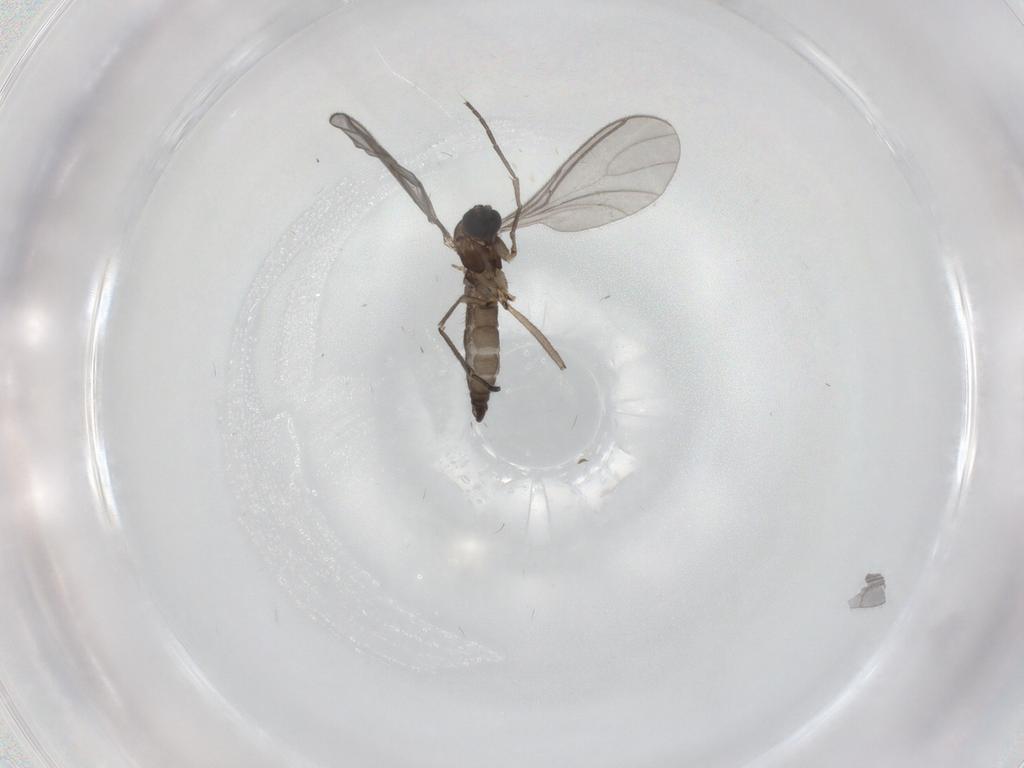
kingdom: Animalia
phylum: Arthropoda
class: Insecta
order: Diptera
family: Sciaridae
